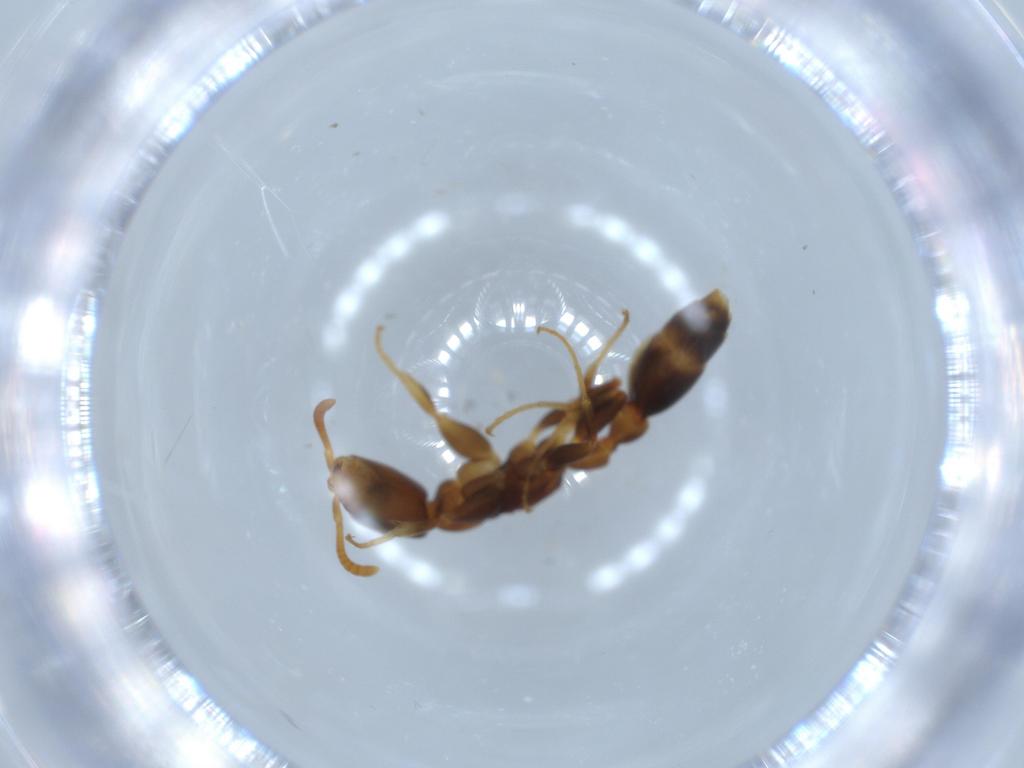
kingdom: Animalia
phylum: Arthropoda
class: Insecta
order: Hymenoptera
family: Formicidae
